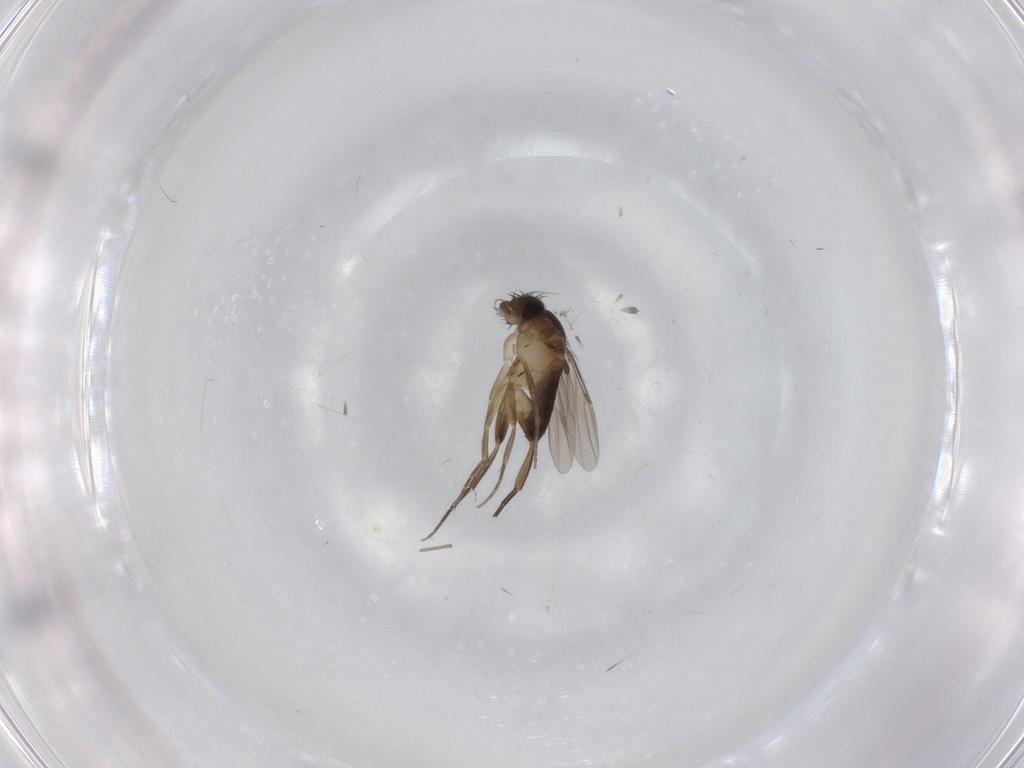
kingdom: Animalia
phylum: Arthropoda
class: Insecta
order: Diptera
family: Phoridae
